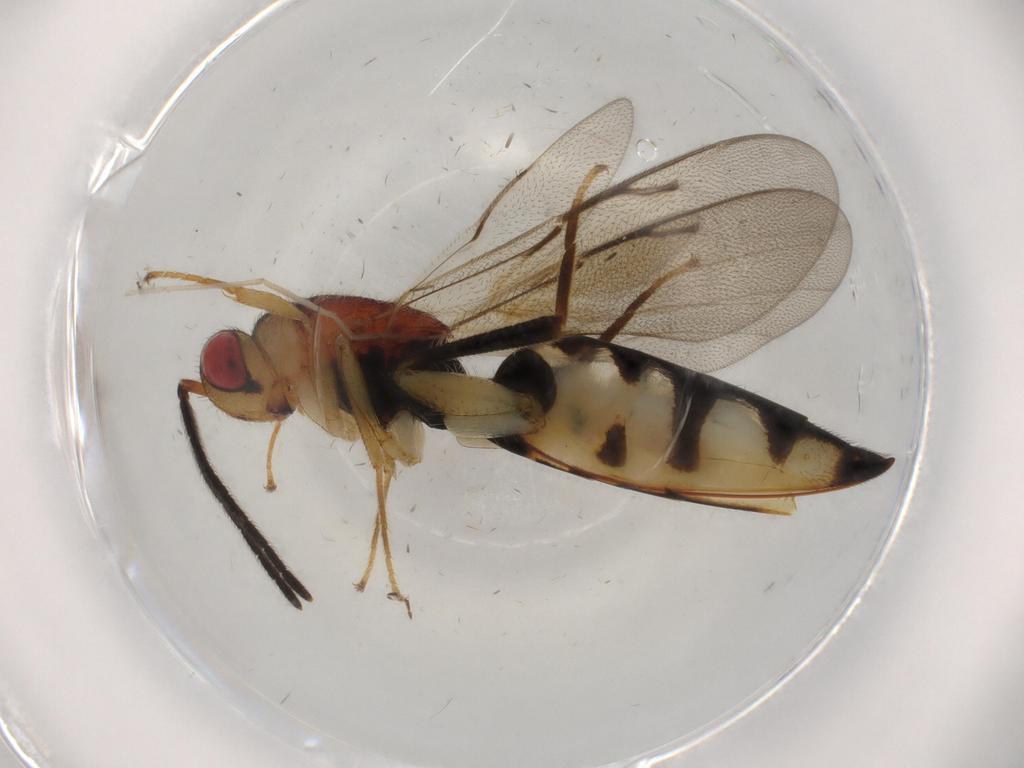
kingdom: Animalia
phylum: Arthropoda
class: Insecta
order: Hymenoptera
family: Eurytomidae
